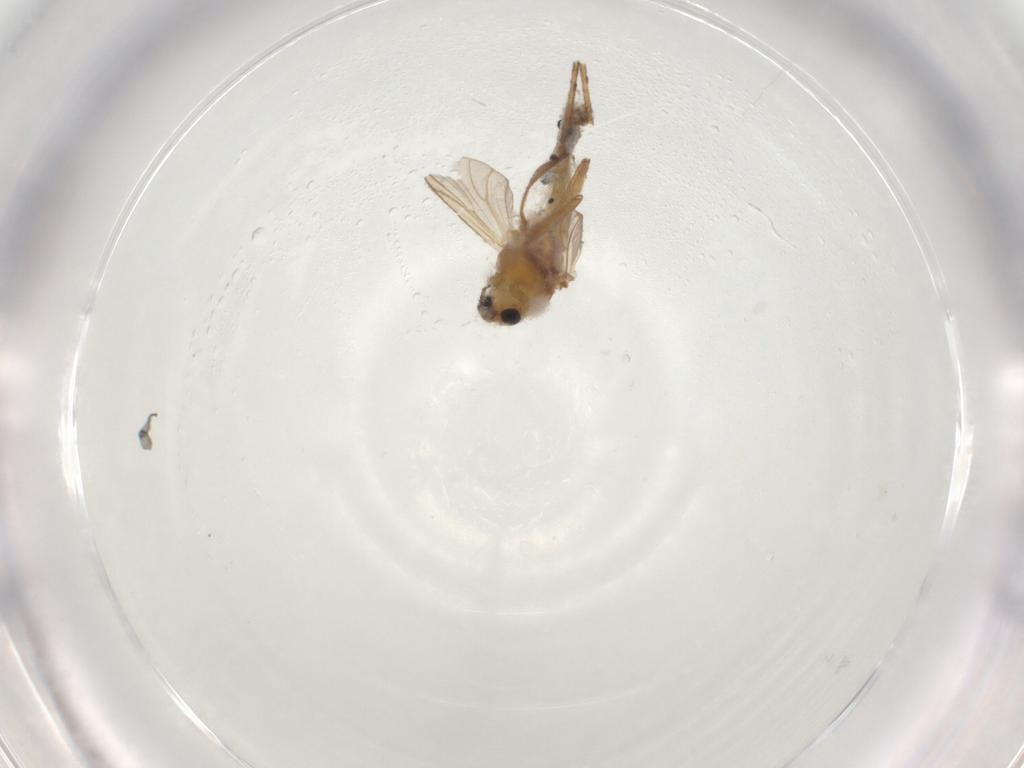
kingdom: Animalia
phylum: Arthropoda
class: Insecta
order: Diptera
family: Chironomidae
